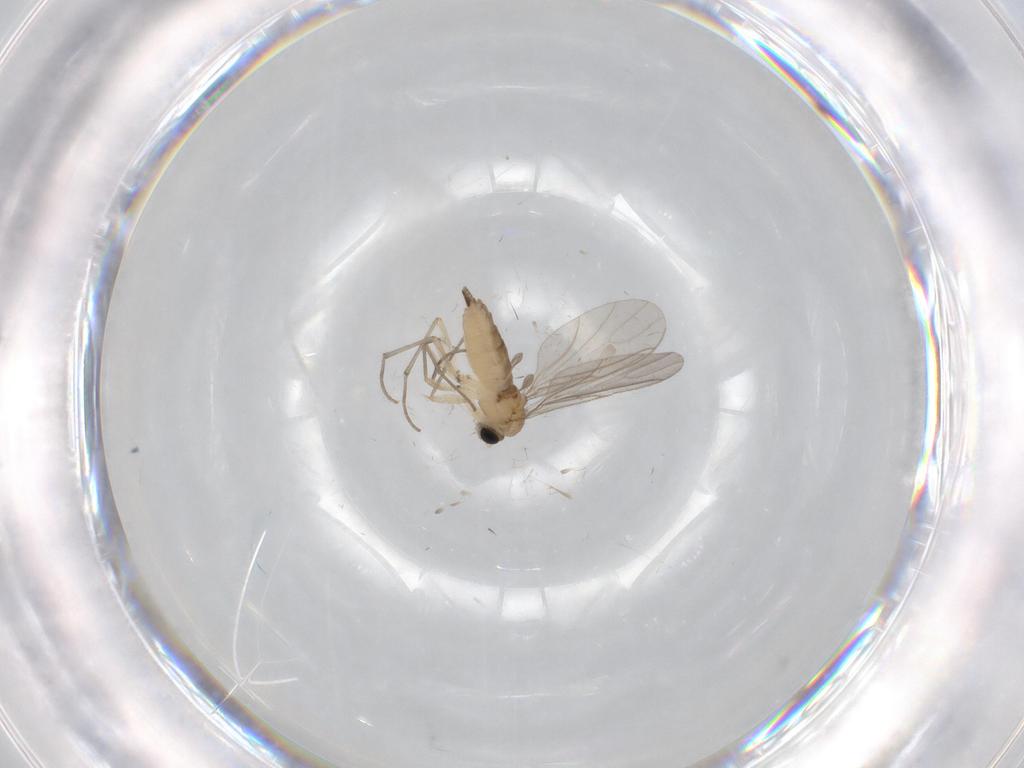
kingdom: Animalia
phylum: Arthropoda
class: Insecta
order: Diptera
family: Sciaridae
